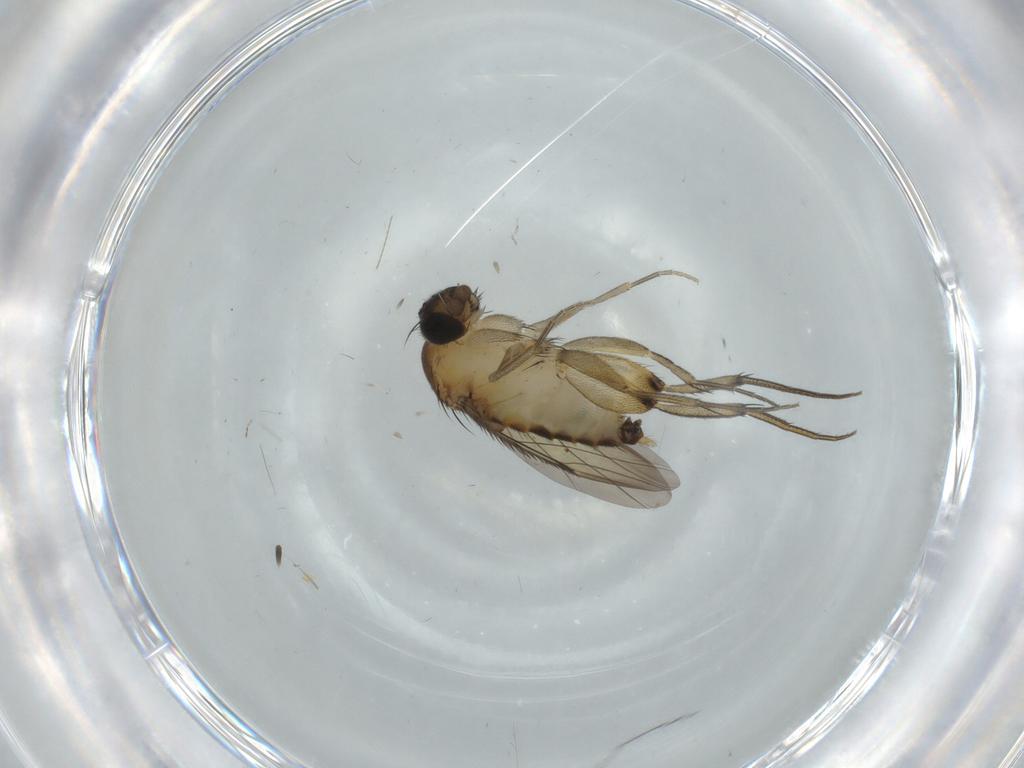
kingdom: Animalia
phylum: Arthropoda
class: Insecta
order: Diptera
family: Phoridae
